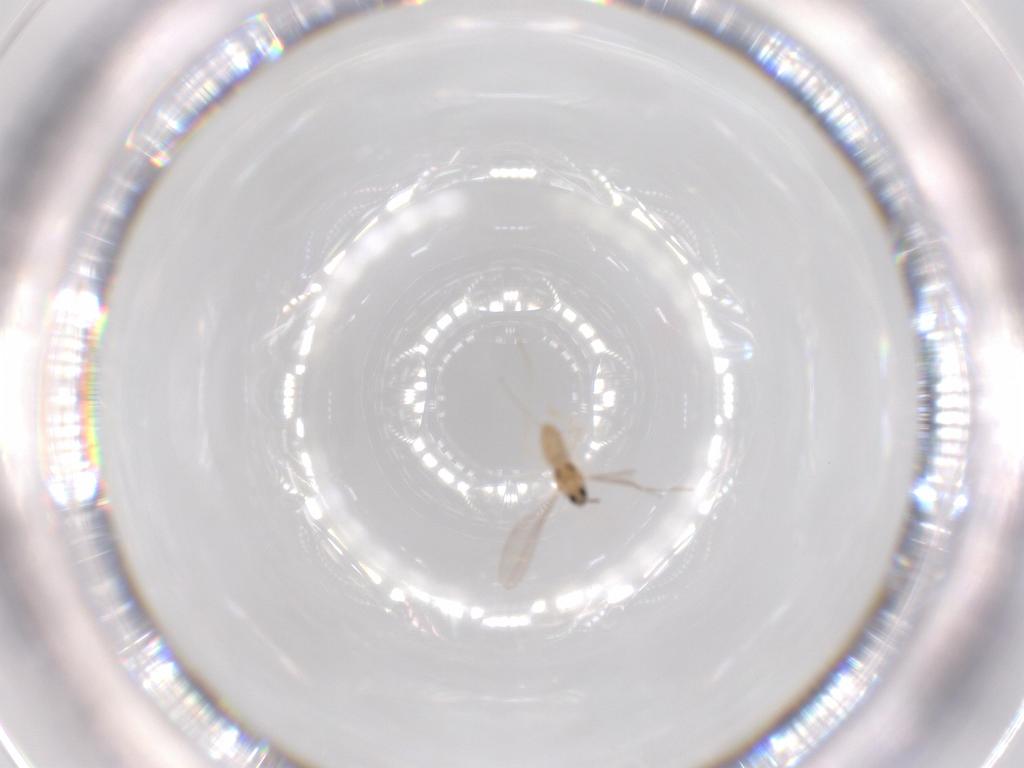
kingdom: Animalia
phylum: Arthropoda
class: Insecta
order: Diptera
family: Cecidomyiidae
